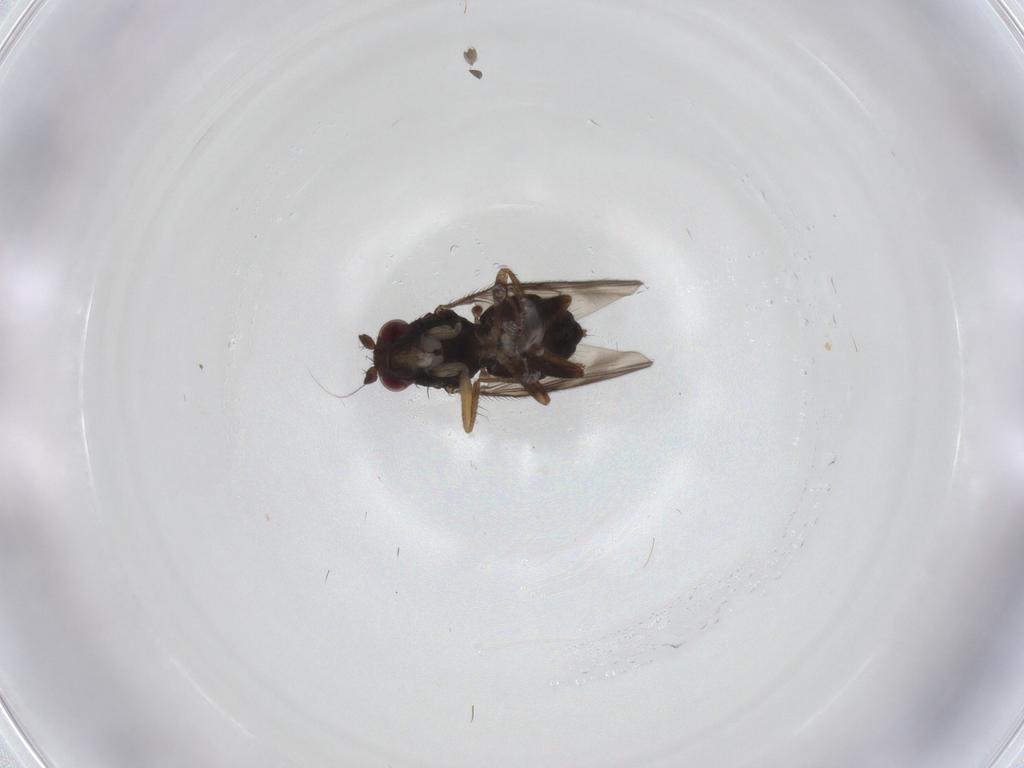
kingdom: Animalia
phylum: Arthropoda
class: Insecta
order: Diptera
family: Sphaeroceridae
